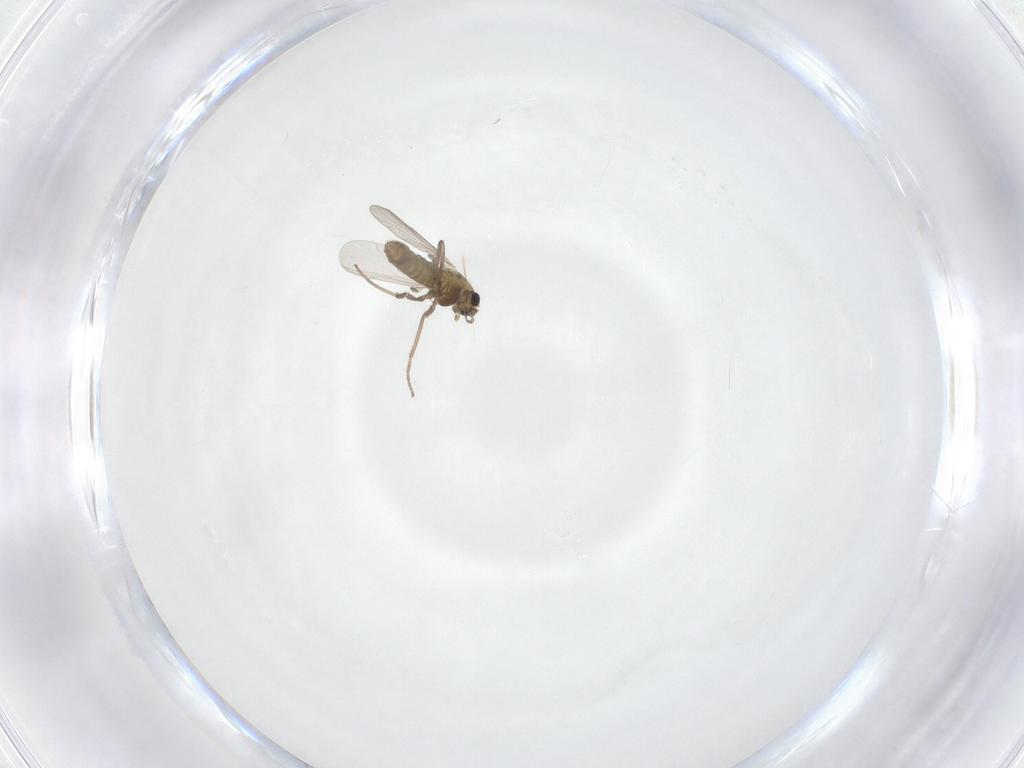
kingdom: Animalia
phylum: Arthropoda
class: Insecta
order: Diptera
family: Chironomidae
